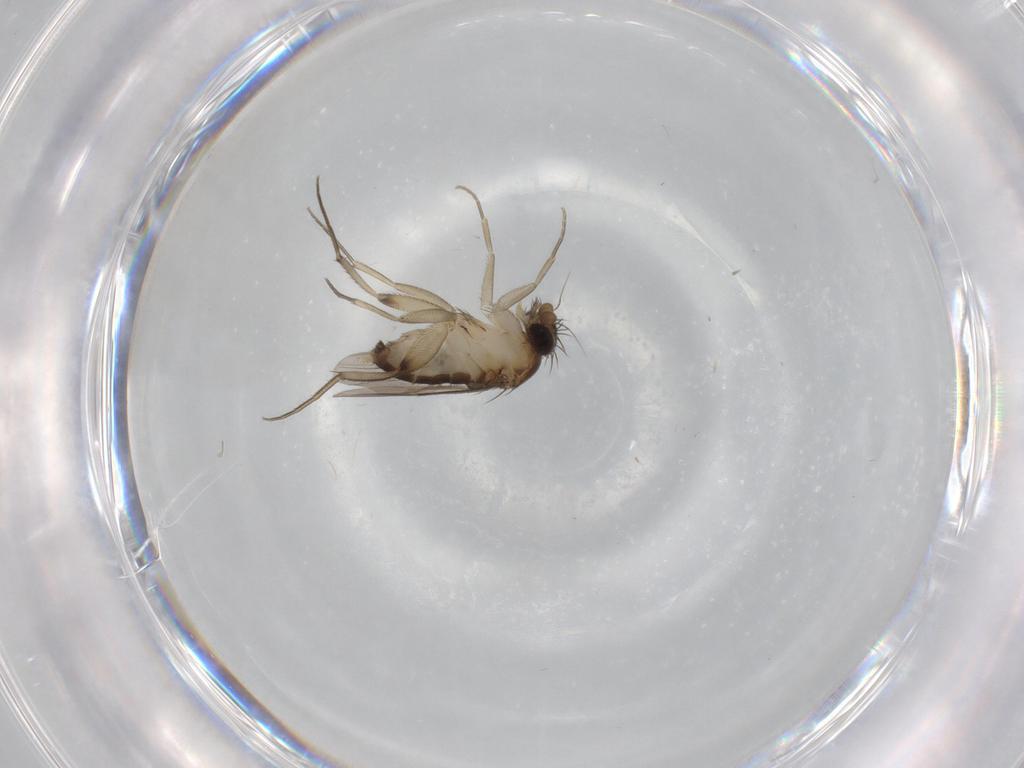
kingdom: Animalia
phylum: Arthropoda
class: Insecta
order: Diptera
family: Phoridae
